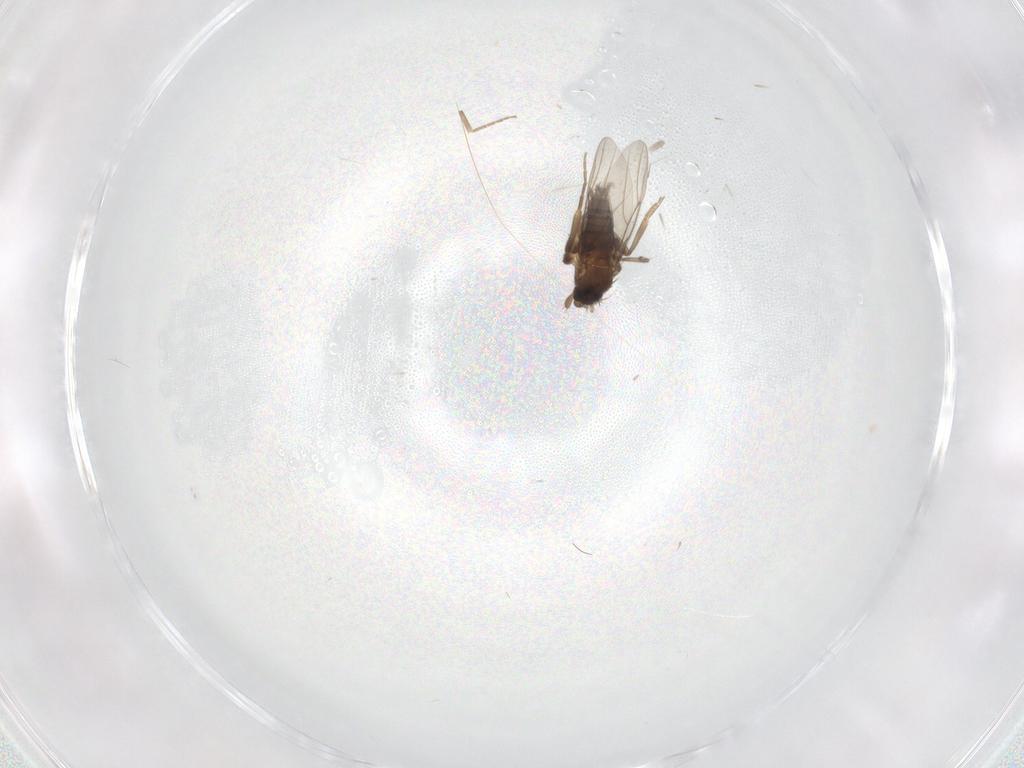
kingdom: Animalia
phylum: Arthropoda
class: Insecta
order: Diptera
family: Phoridae
